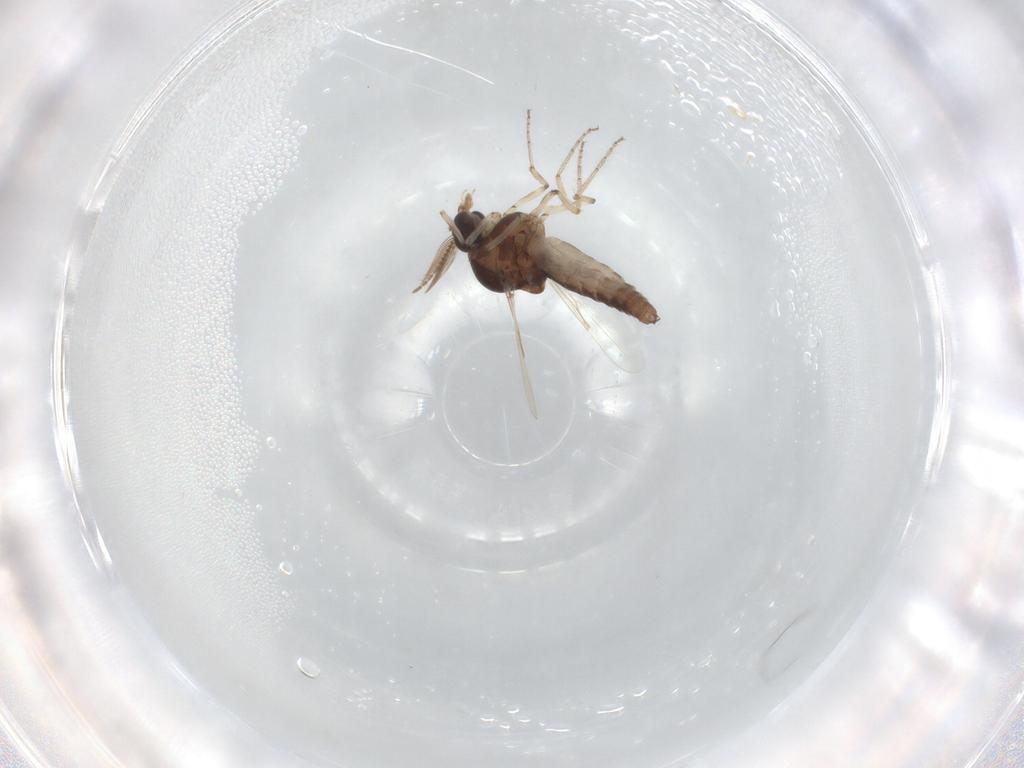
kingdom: Animalia
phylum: Arthropoda
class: Insecta
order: Diptera
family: Ceratopogonidae
